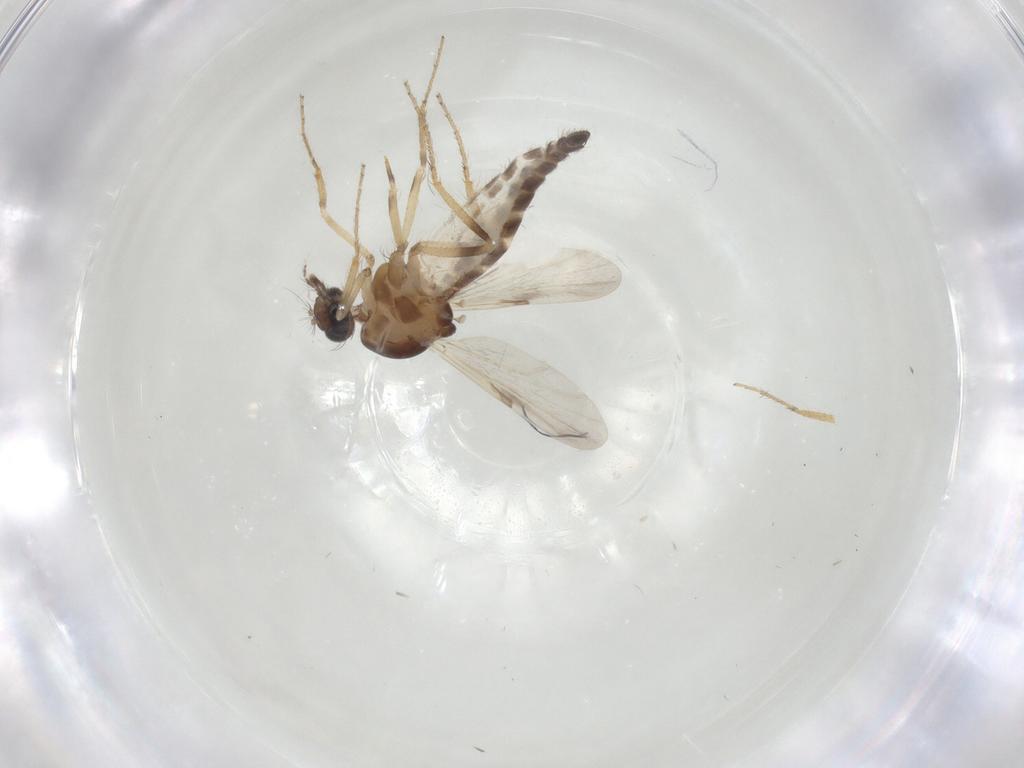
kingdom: Animalia
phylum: Arthropoda
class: Insecta
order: Diptera
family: Ceratopogonidae
